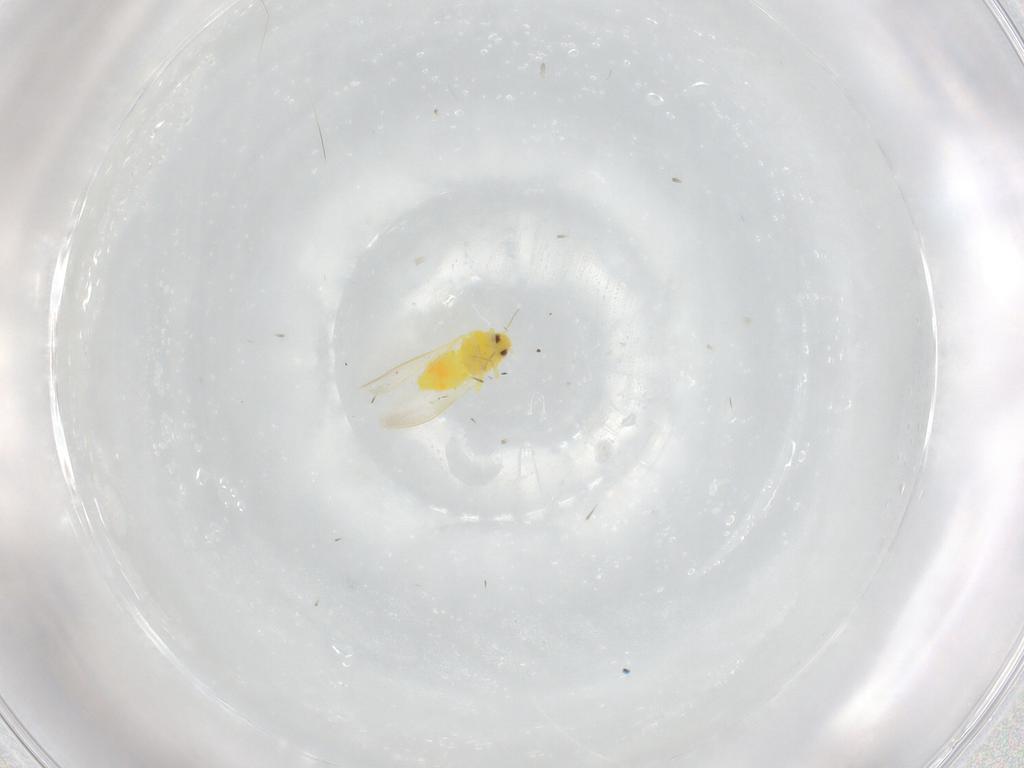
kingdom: Animalia
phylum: Arthropoda
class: Insecta
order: Hemiptera
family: Aleyrodidae
